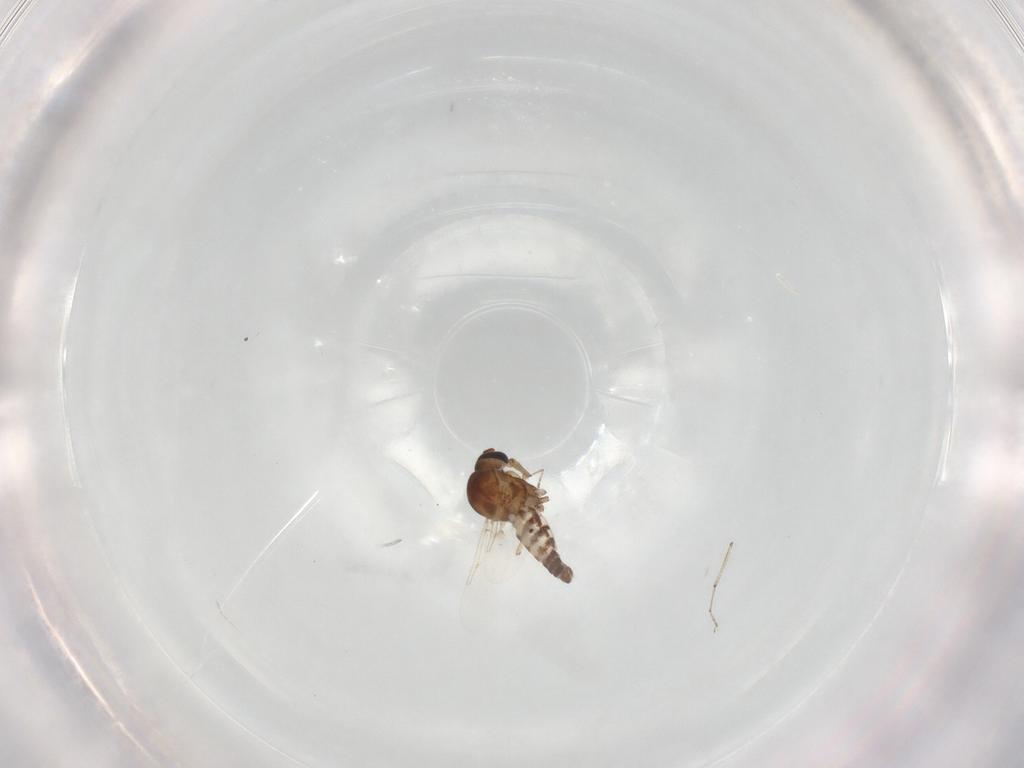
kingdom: Animalia
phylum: Arthropoda
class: Insecta
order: Diptera
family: Ceratopogonidae
